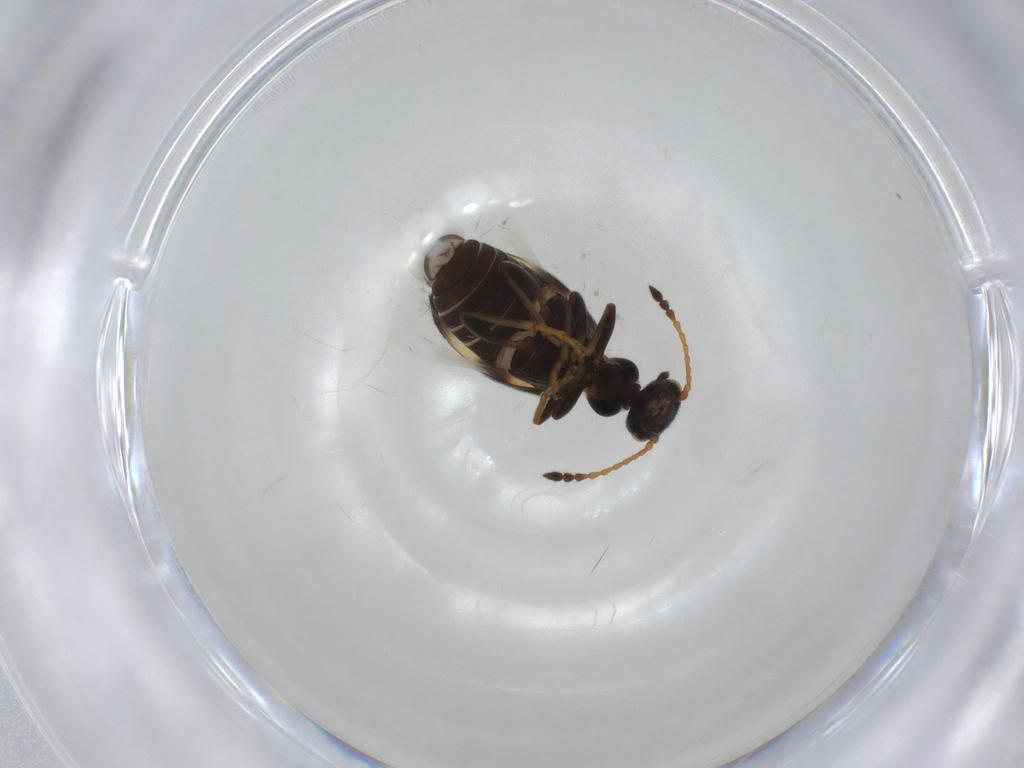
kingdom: Animalia
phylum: Arthropoda
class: Insecta
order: Coleoptera
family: Anthicidae
